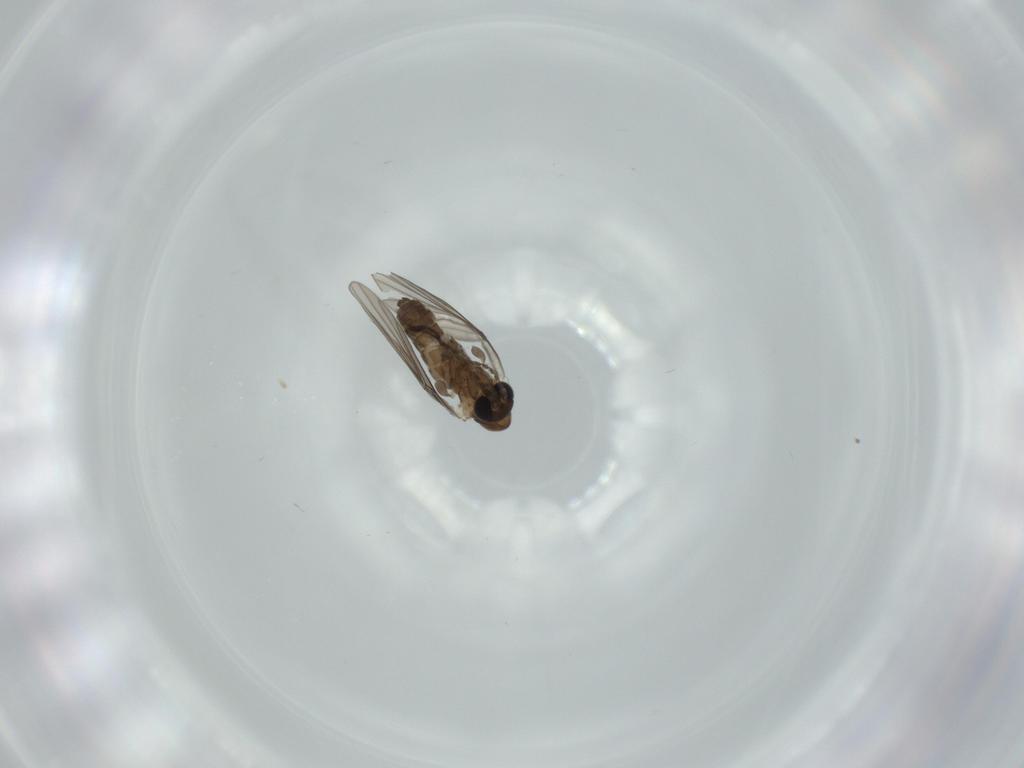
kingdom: Animalia
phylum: Arthropoda
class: Insecta
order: Diptera
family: Psychodidae
